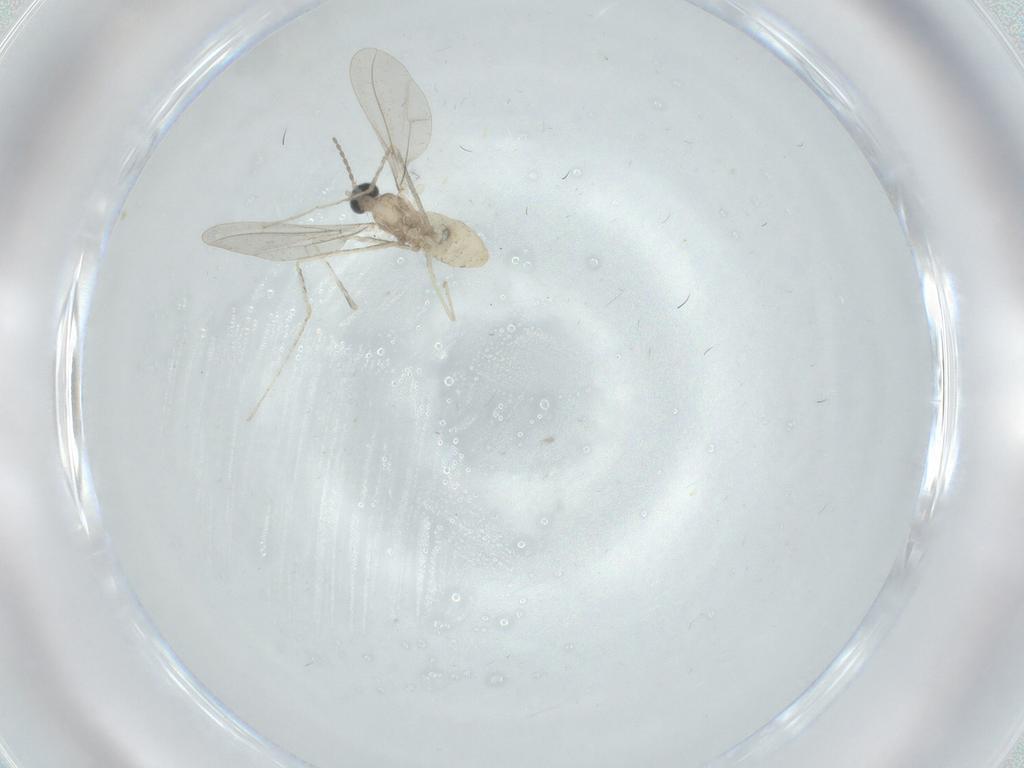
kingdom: Animalia
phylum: Arthropoda
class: Insecta
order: Diptera
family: Cecidomyiidae
